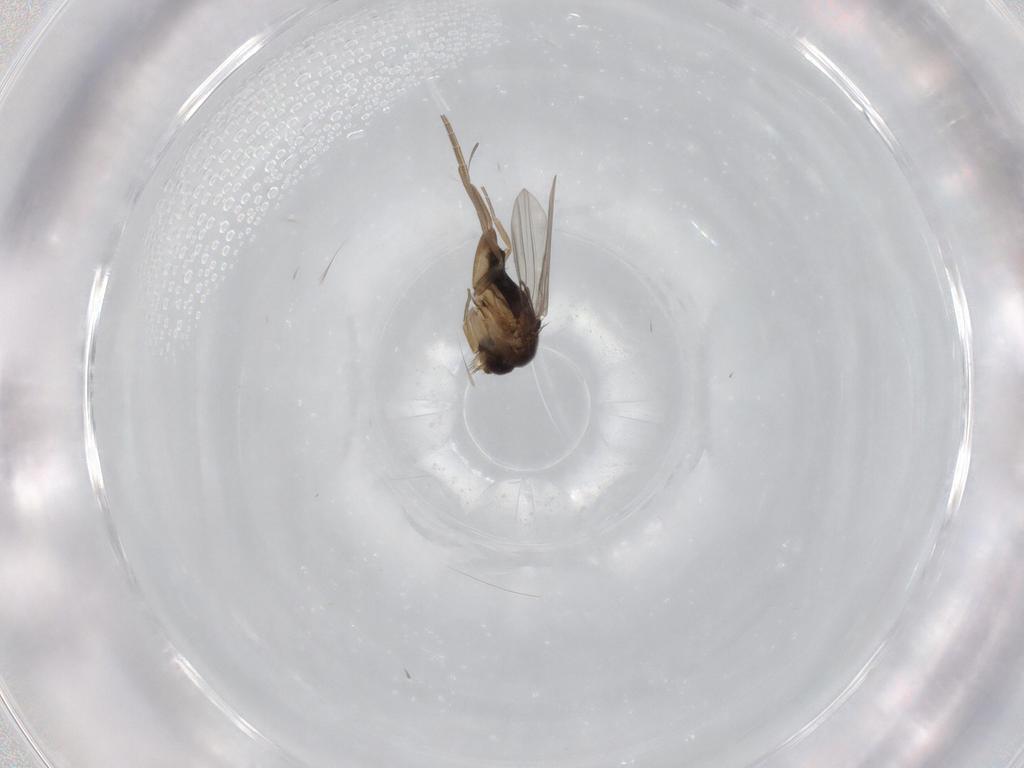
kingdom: Animalia
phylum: Arthropoda
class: Insecta
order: Diptera
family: Phoridae
